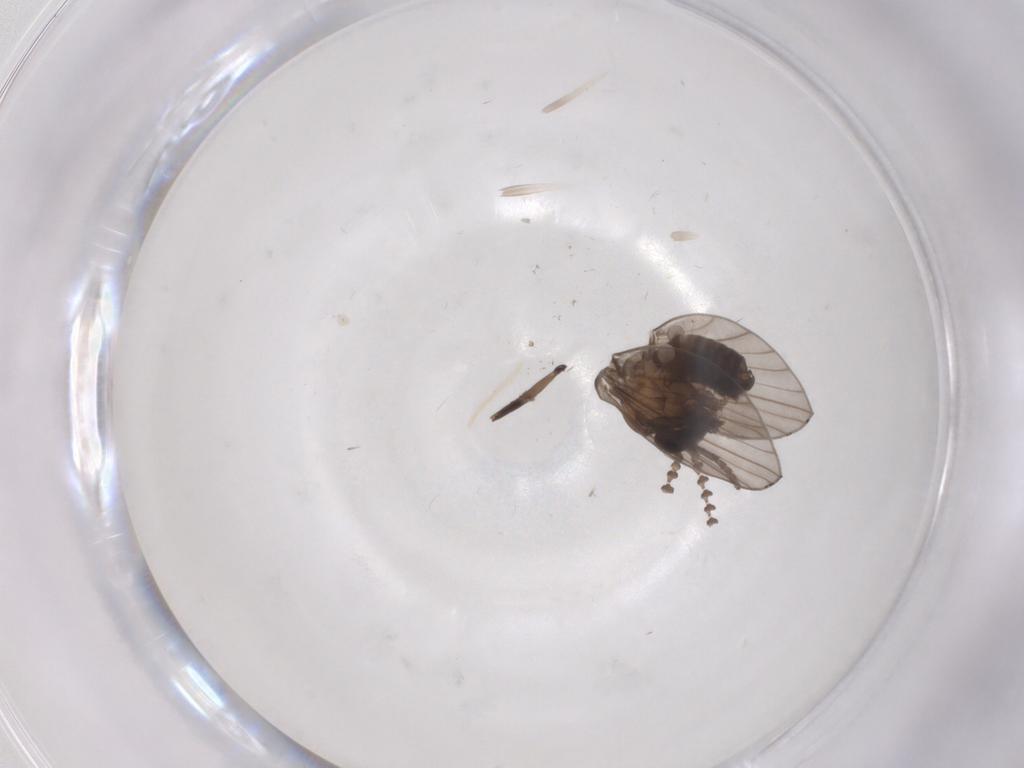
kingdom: Animalia
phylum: Arthropoda
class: Insecta
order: Diptera
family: Psychodidae
